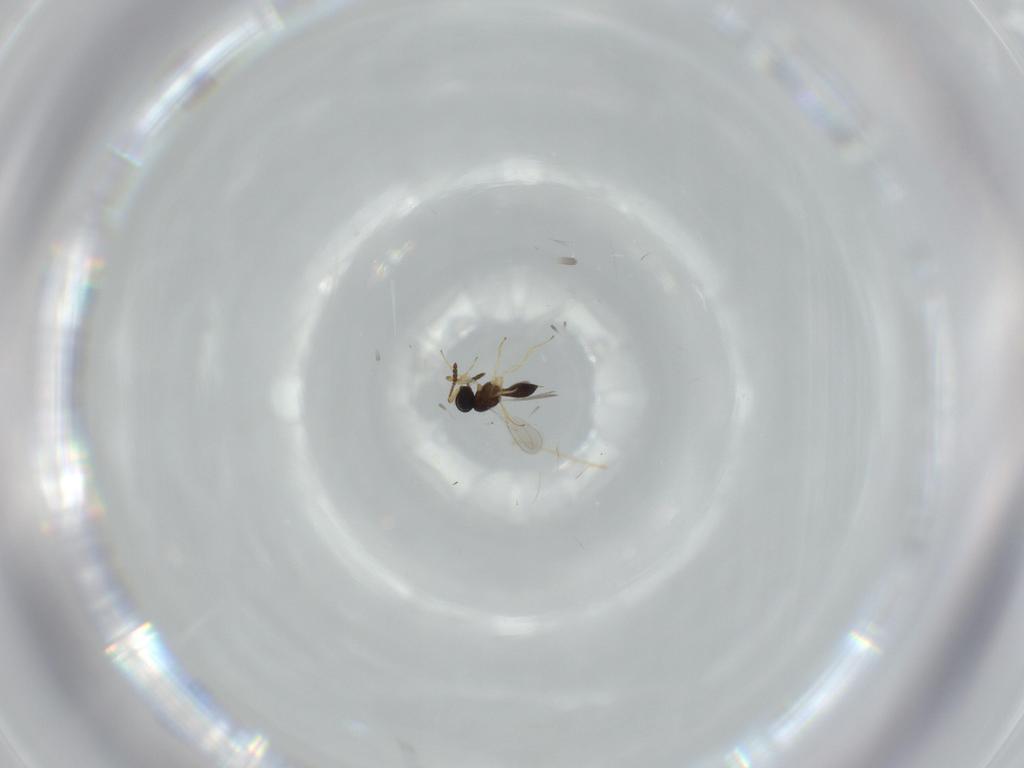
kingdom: Animalia
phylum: Arthropoda
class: Insecta
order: Hymenoptera
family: Scelionidae
